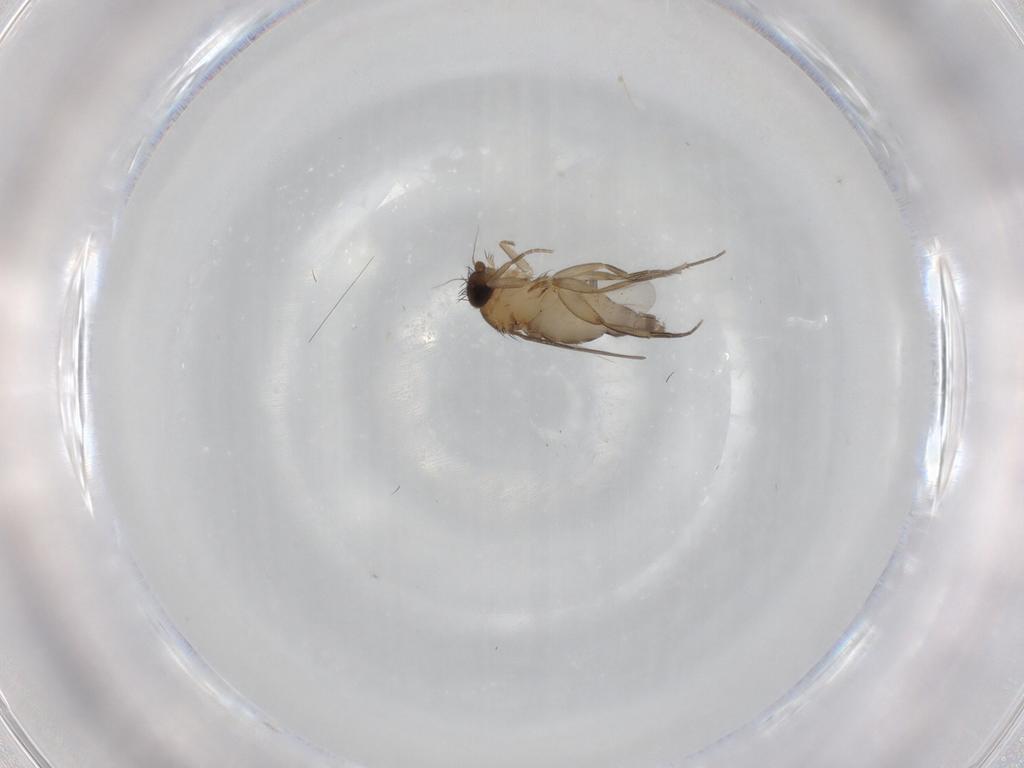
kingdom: Animalia
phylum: Arthropoda
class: Insecta
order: Diptera
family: Phoridae
